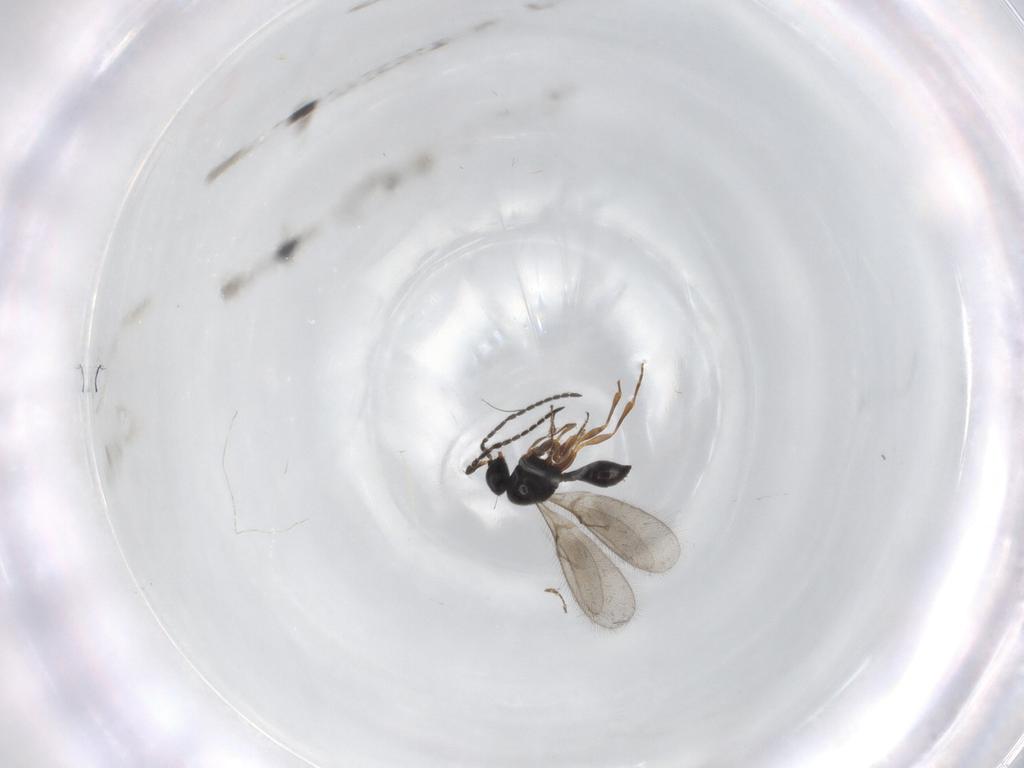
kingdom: Animalia
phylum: Arthropoda
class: Insecta
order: Hymenoptera
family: Scelionidae
